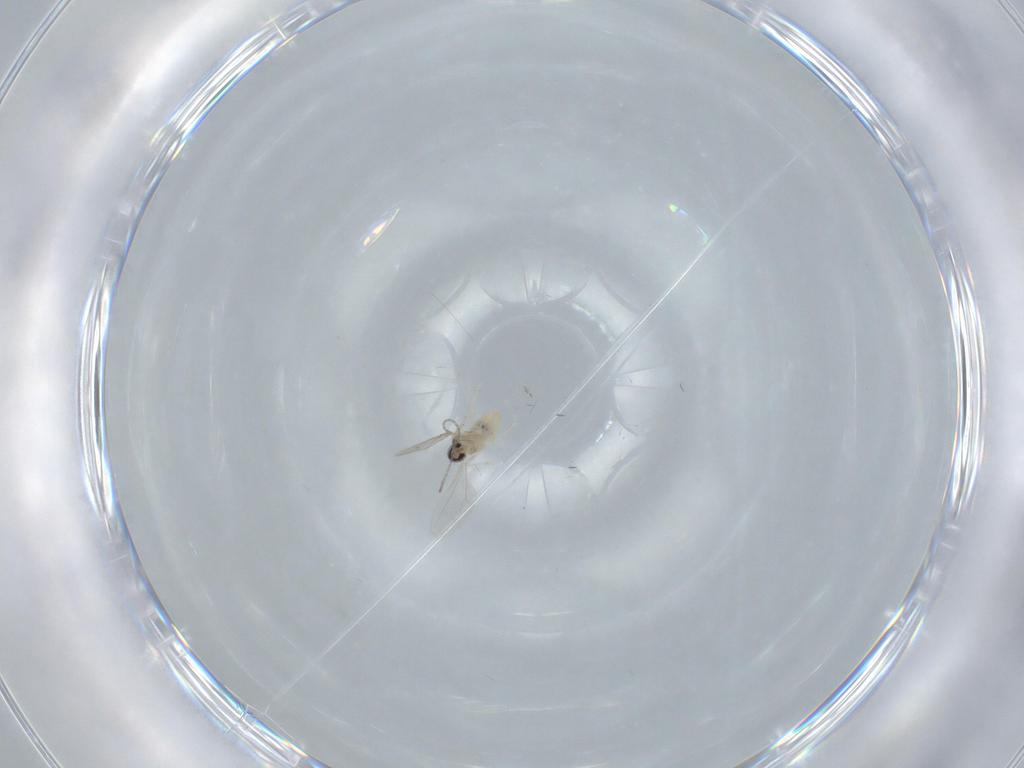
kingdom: Animalia
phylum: Arthropoda
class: Insecta
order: Diptera
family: Cecidomyiidae
